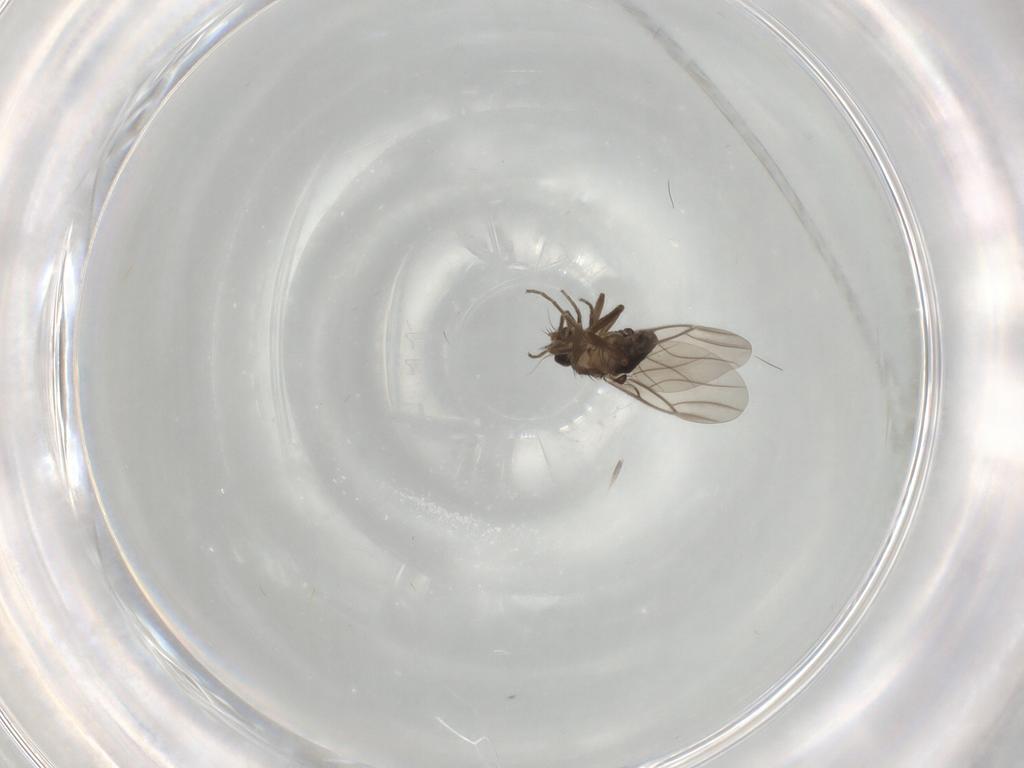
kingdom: Animalia
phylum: Arthropoda
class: Insecta
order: Diptera
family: Phoridae
